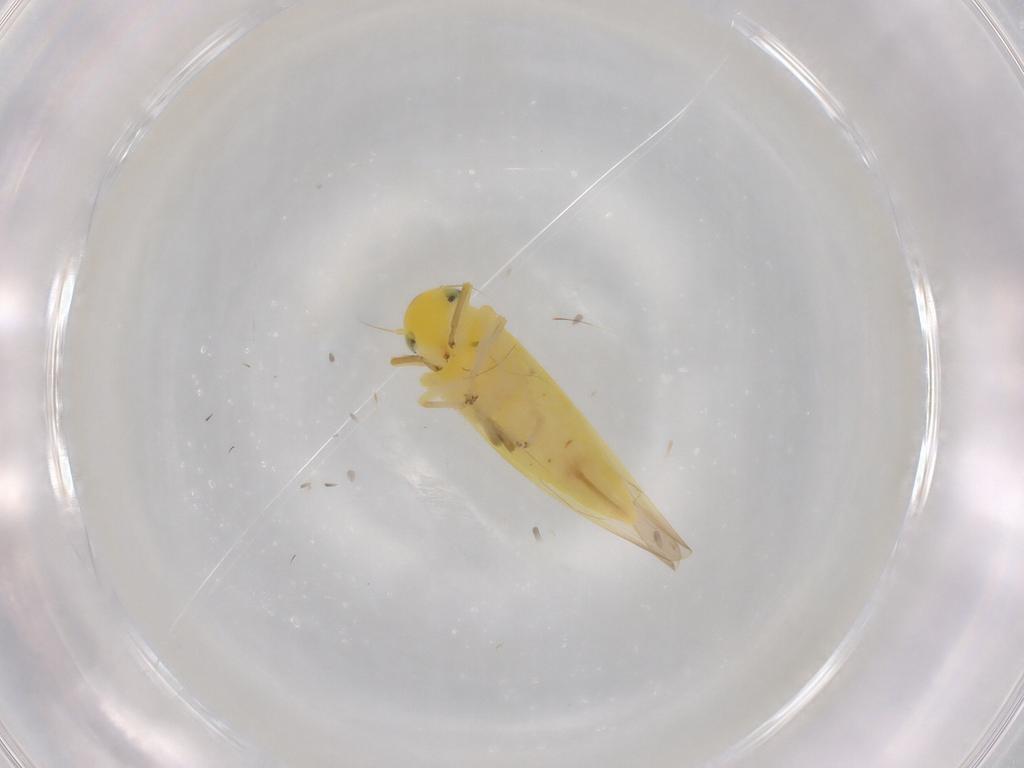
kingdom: Animalia
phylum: Arthropoda
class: Insecta
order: Hemiptera
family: Cicadellidae
